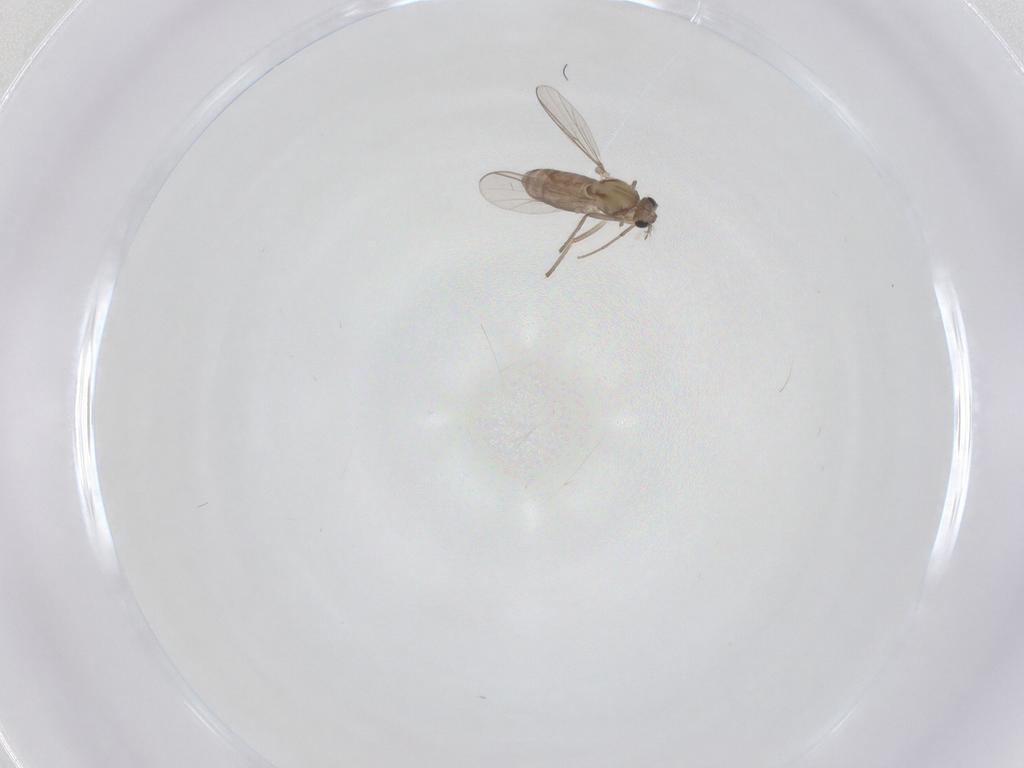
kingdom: Animalia
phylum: Arthropoda
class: Insecta
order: Diptera
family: Chironomidae
